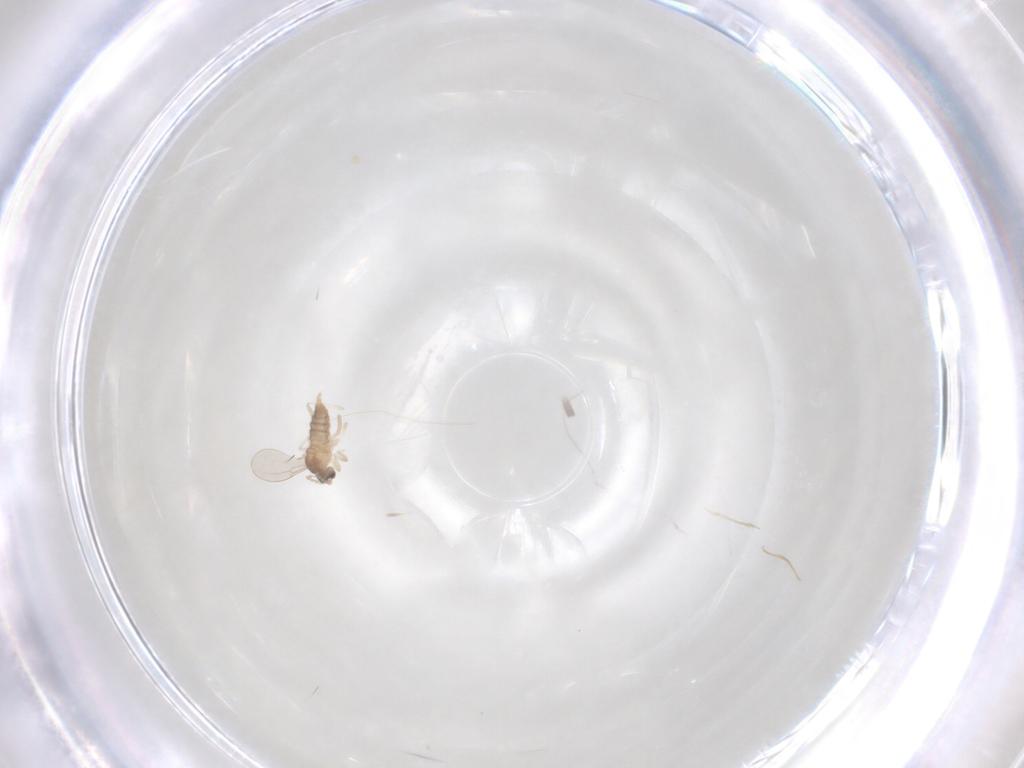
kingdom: Animalia
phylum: Arthropoda
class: Insecta
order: Diptera
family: Cecidomyiidae
